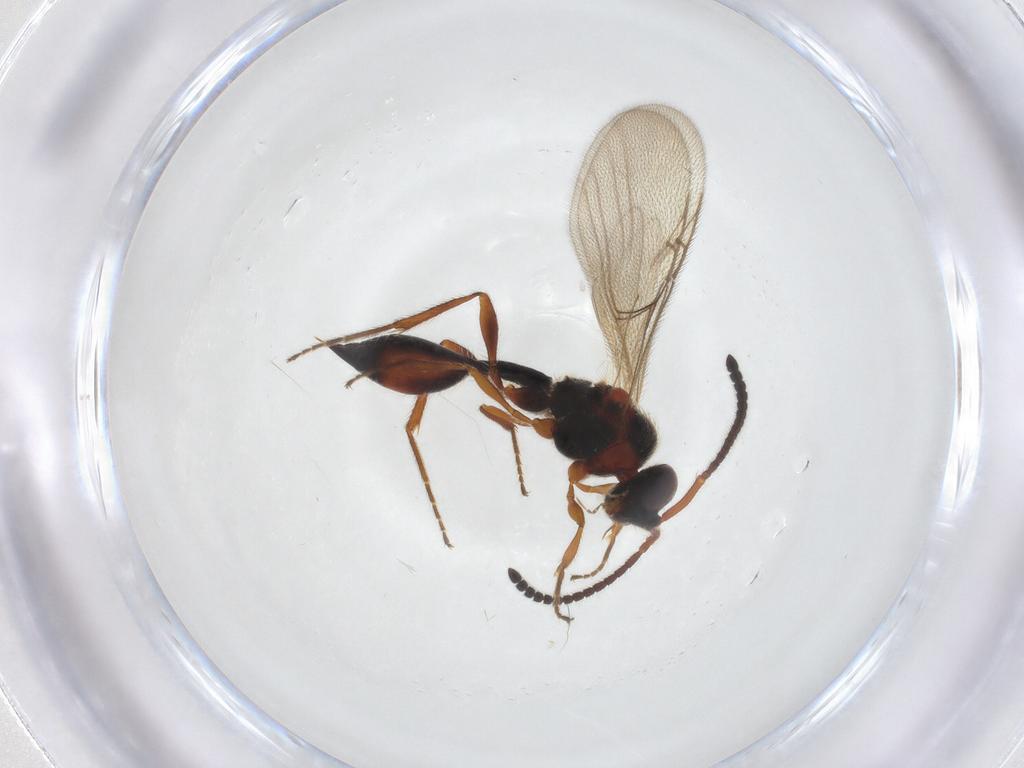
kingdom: Animalia
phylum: Arthropoda
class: Insecta
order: Hymenoptera
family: Diapriidae
